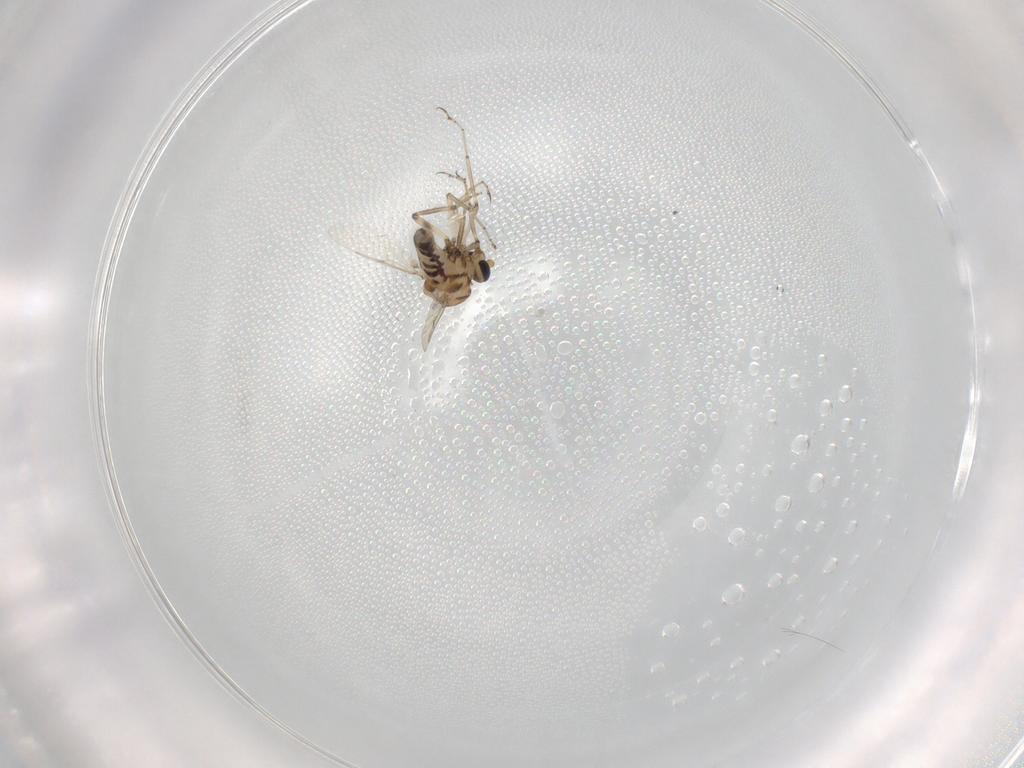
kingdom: Animalia
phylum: Arthropoda
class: Insecta
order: Diptera
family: Ceratopogonidae
